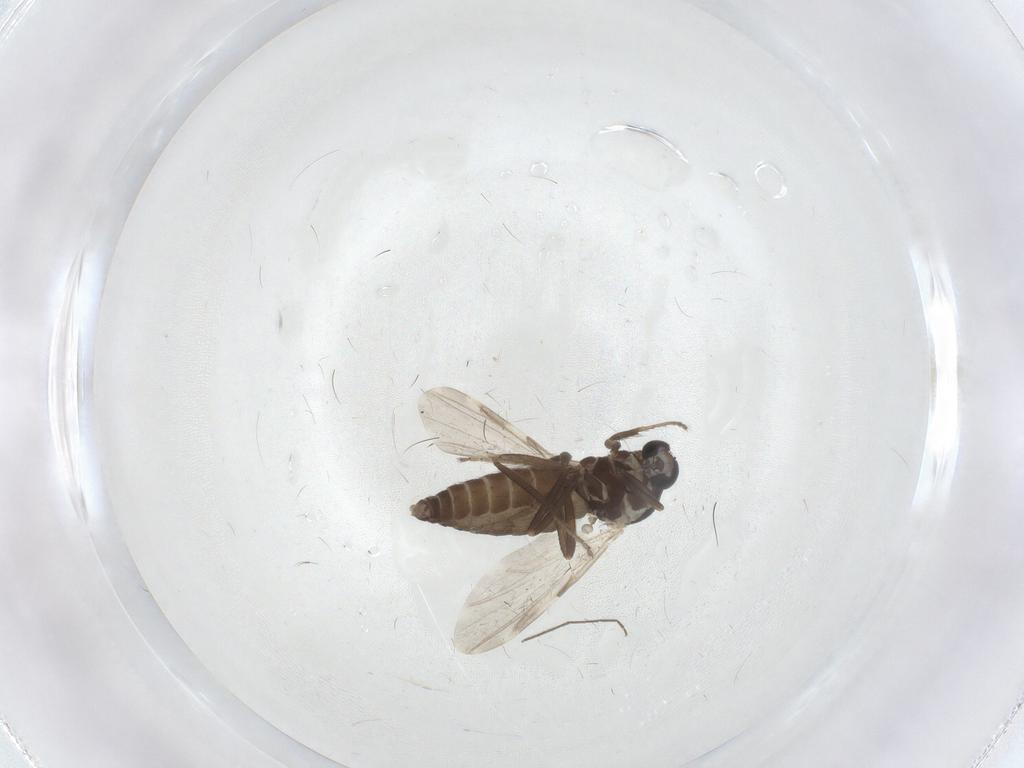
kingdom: Animalia
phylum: Arthropoda
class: Insecta
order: Diptera
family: Ceratopogonidae
